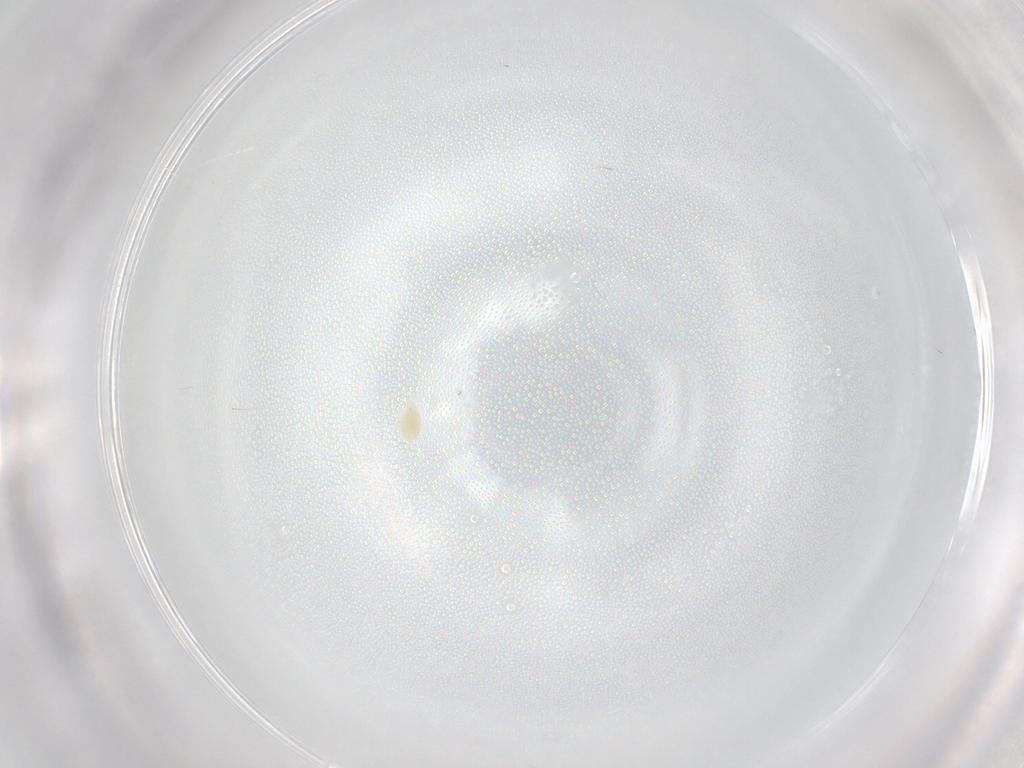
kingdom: Animalia
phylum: Arthropoda
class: Arachnida
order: Trombidiformes
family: Tetranychidae
